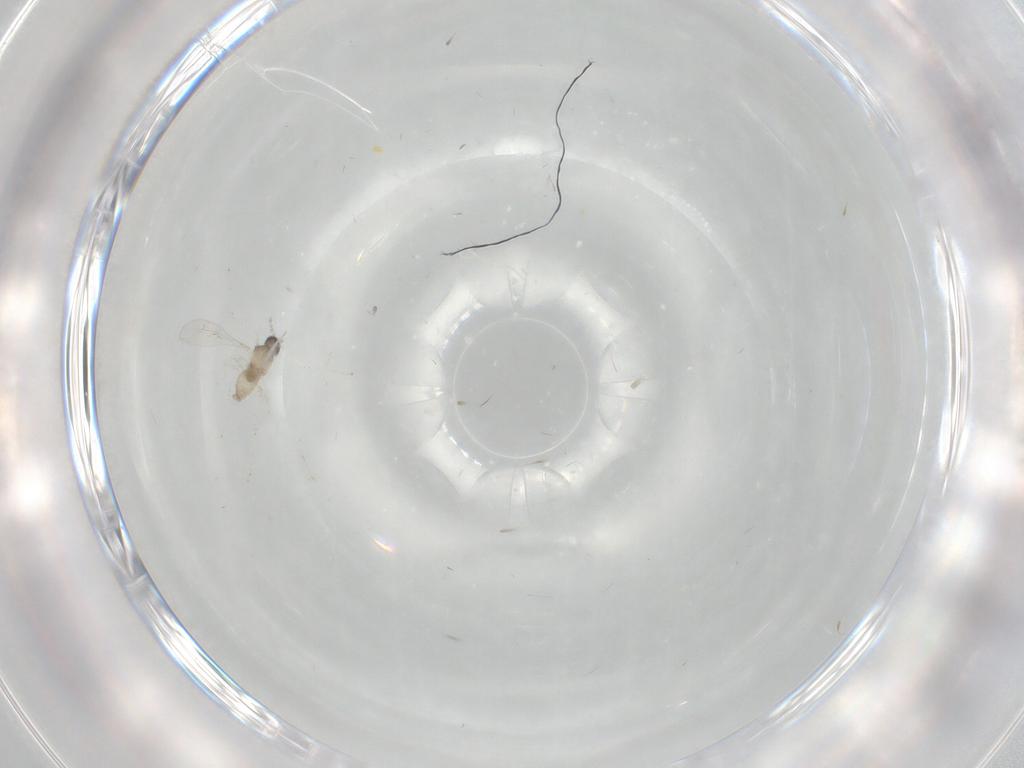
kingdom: Animalia
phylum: Arthropoda
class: Insecta
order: Diptera
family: Cecidomyiidae
